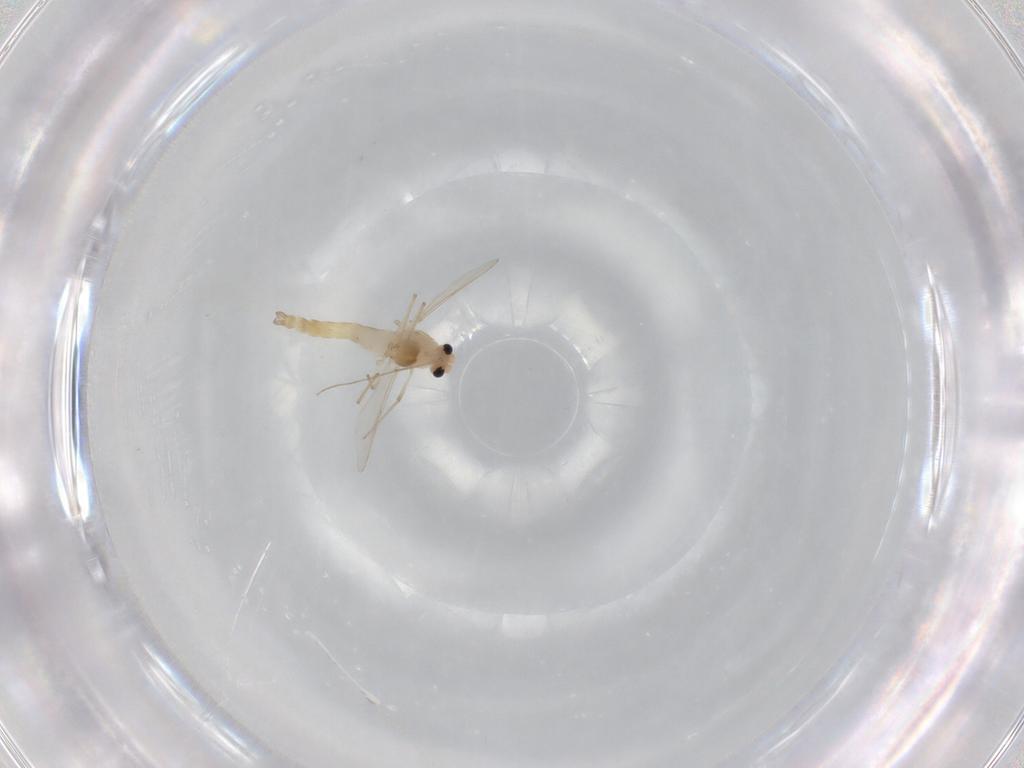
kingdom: Animalia
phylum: Arthropoda
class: Insecta
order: Diptera
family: Chironomidae
